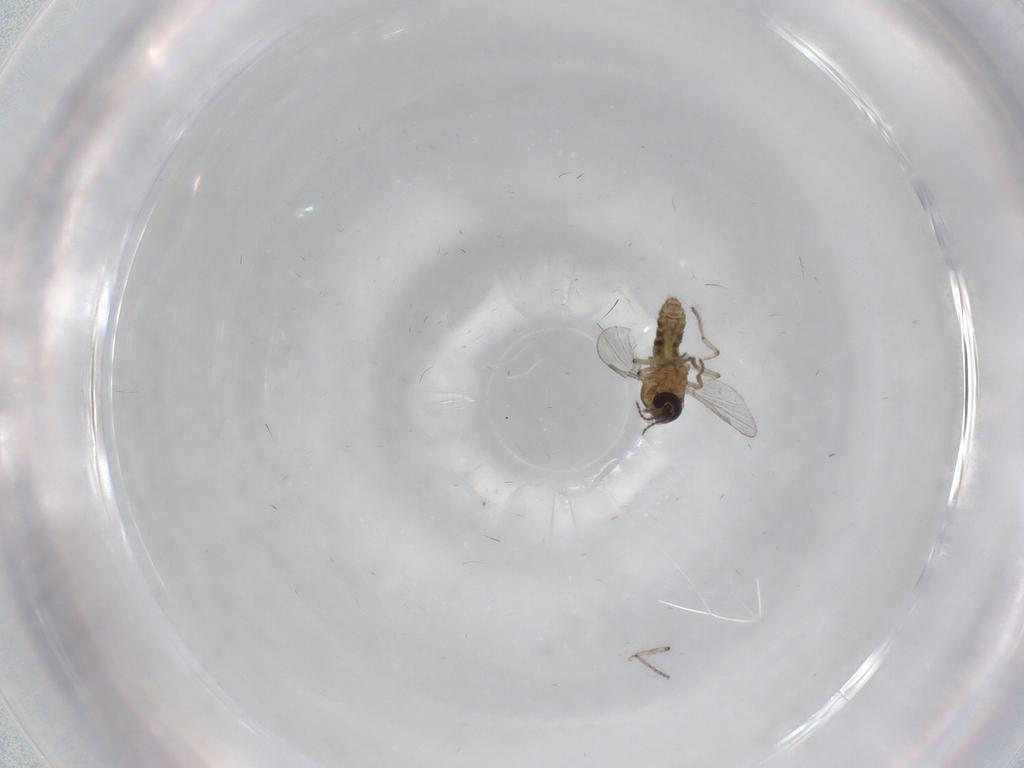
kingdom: Animalia
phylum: Arthropoda
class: Insecta
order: Diptera
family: Ceratopogonidae
